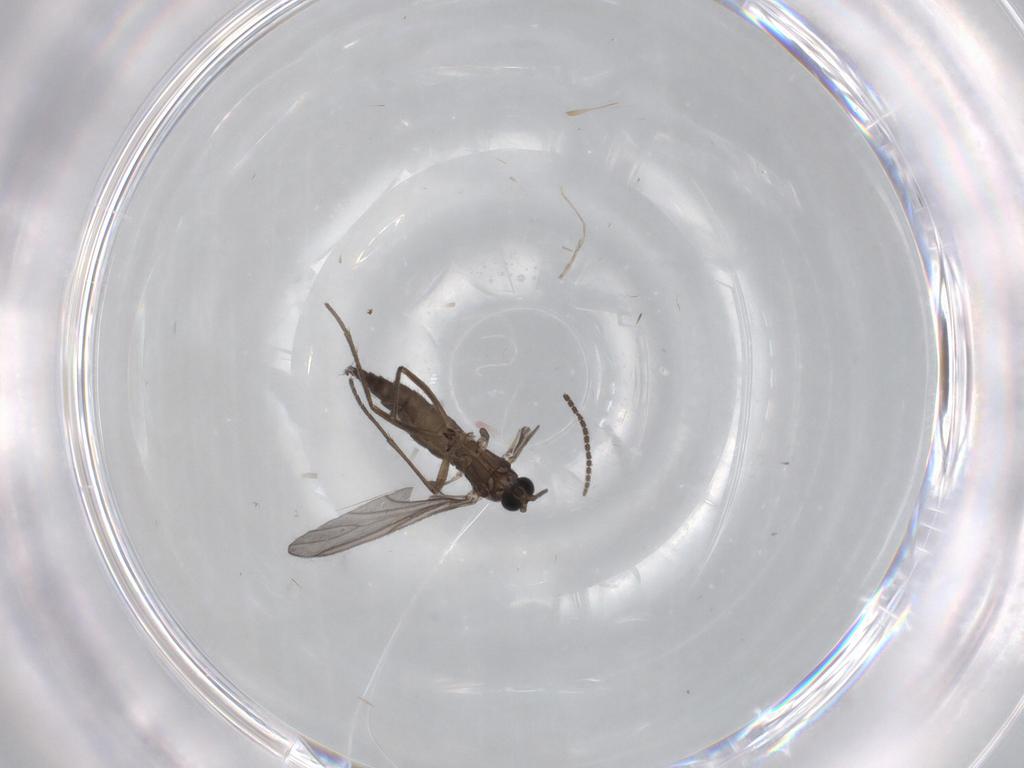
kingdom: Animalia
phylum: Arthropoda
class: Insecta
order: Diptera
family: Sciaridae
